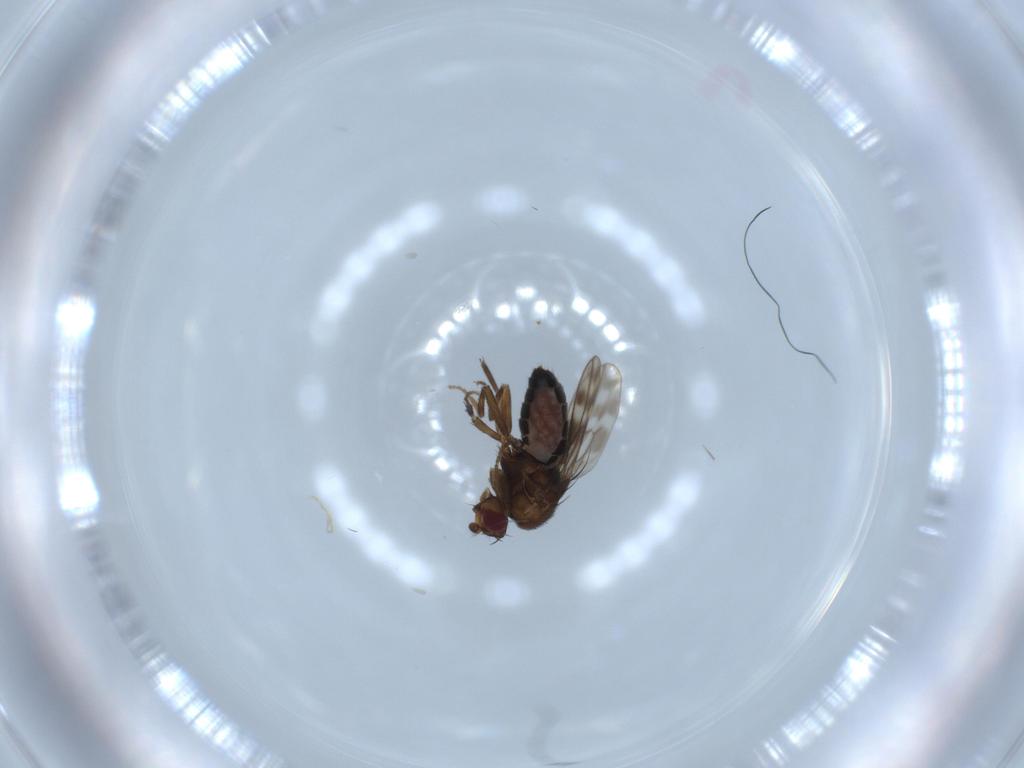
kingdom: Animalia
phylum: Arthropoda
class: Insecta
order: Diptera
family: Sphaeroceridae
